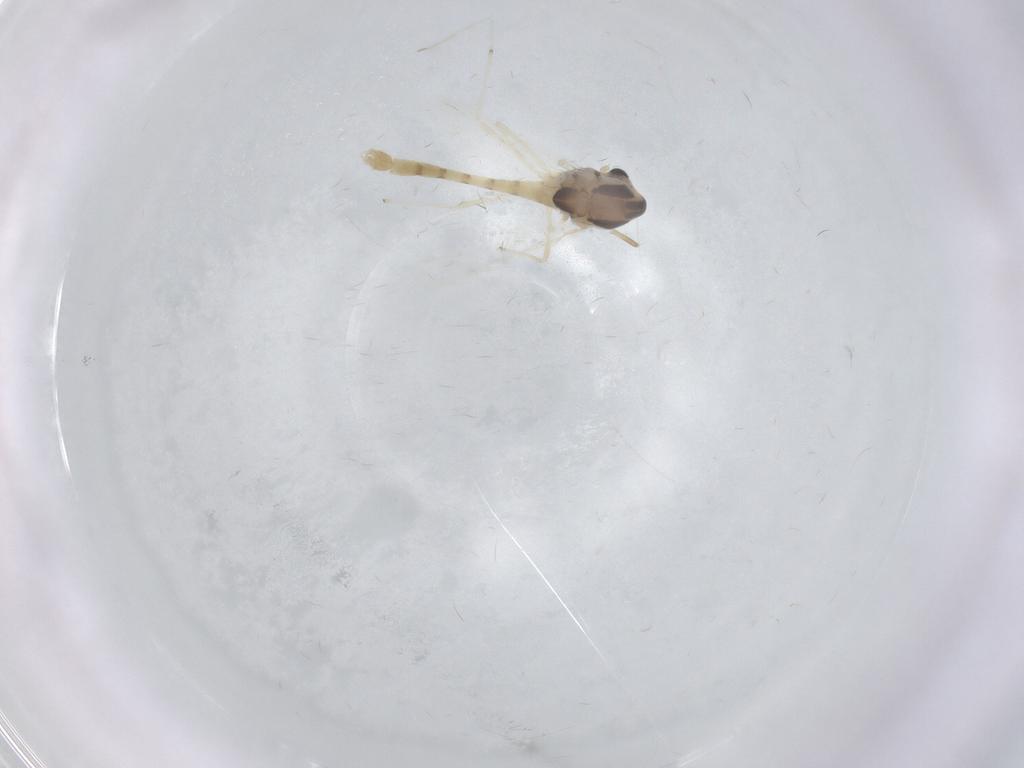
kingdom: Animalia
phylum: Arthropoda
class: Insecta
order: Diptera
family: Chironomidae
